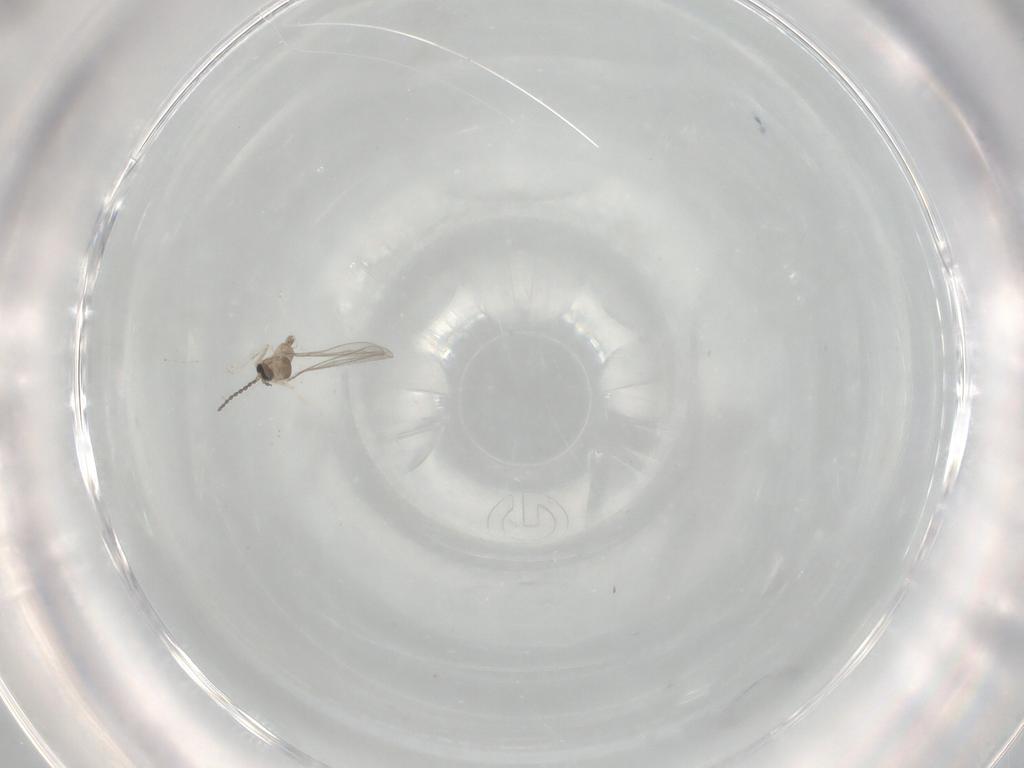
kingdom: Animalia
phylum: Arthropoda
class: Insecta
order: Diptera
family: Cecidomyiidae
